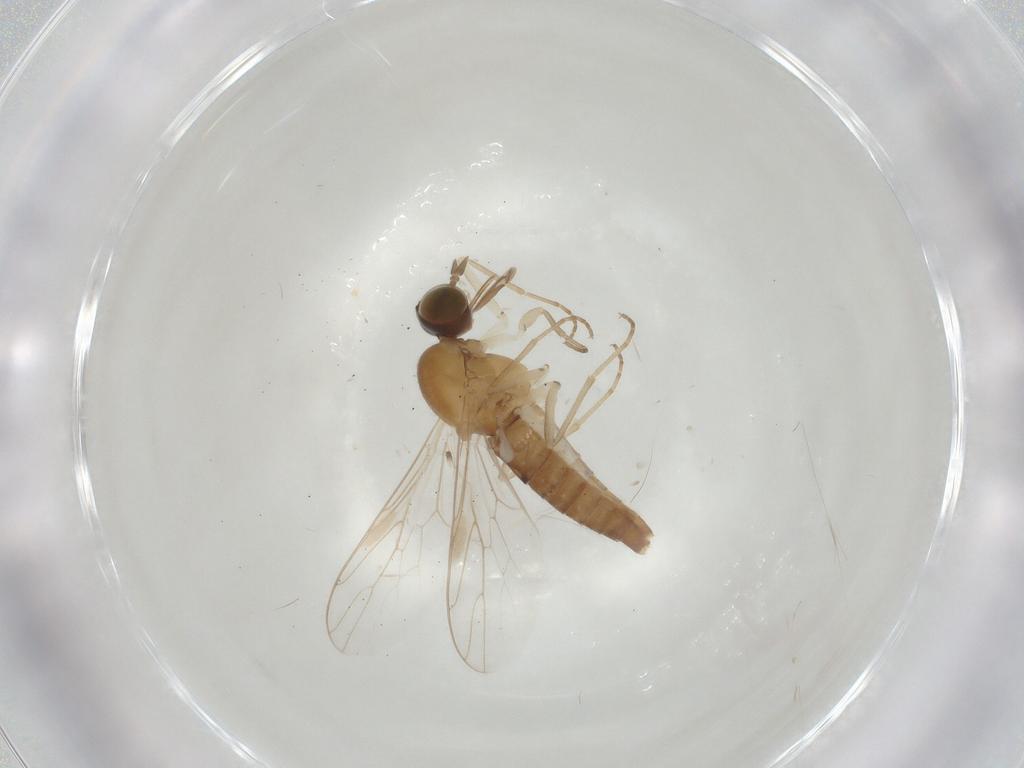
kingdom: Animalia
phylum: Arthropoda
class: Insecta
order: Diptera
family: Scenopinidae
